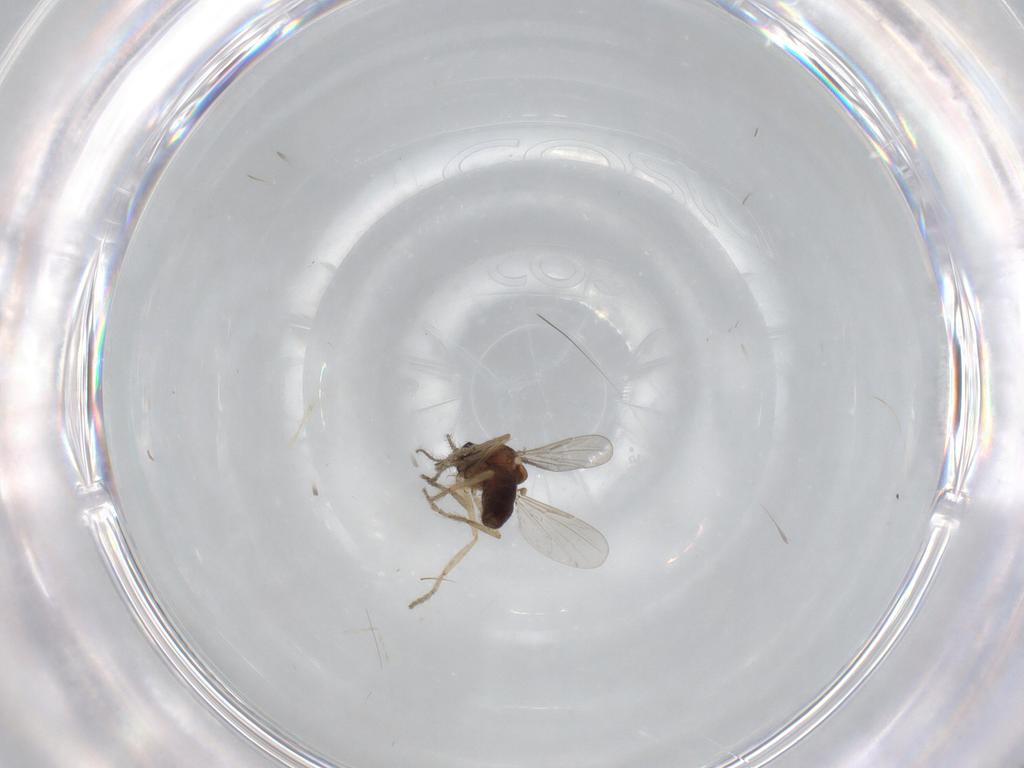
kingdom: Animalia
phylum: Arthropoda
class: Insecta
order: Diptera
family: Ceratopogonidae
